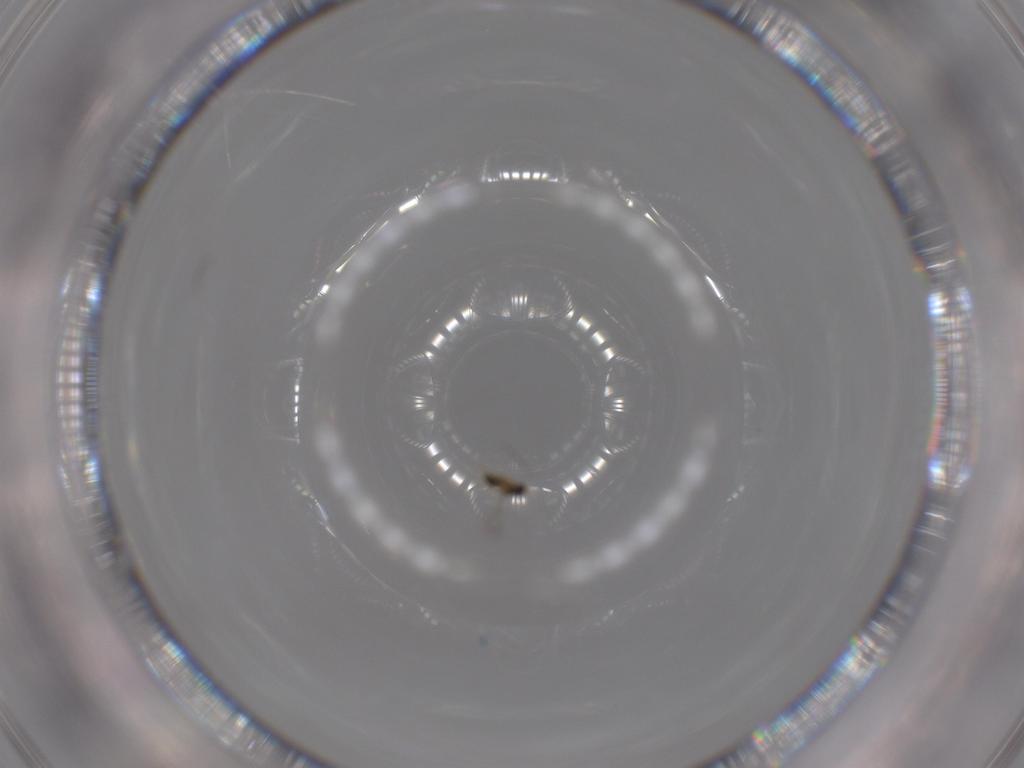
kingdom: Animalia
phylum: Arthropoda
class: Insecta
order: Hymenoptera
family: Mymaridae
